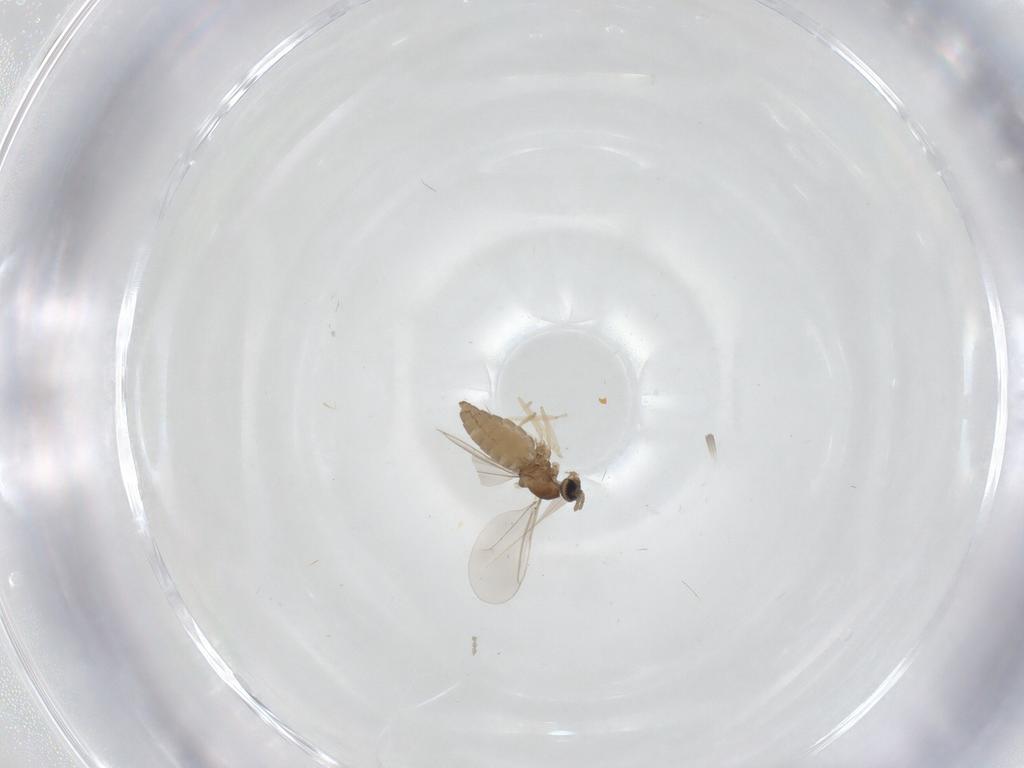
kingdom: Animalia
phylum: Arthropoda
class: Insecta
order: Diptera
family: Cecidomyiidae
